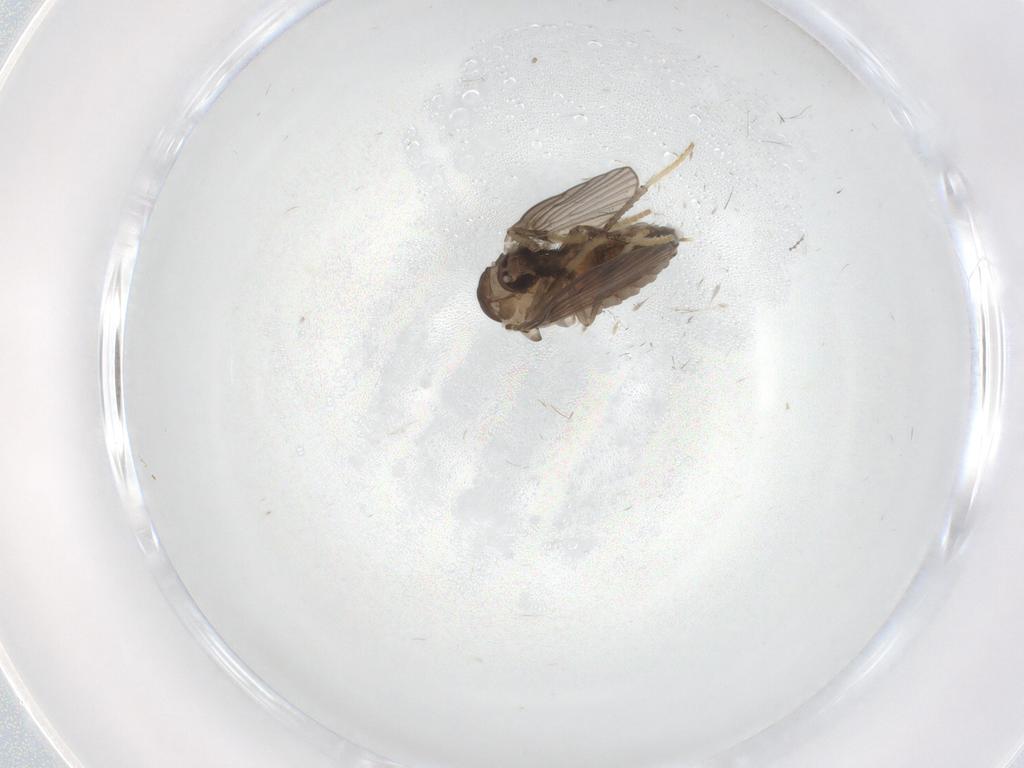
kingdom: Animalia
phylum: Arthropoda
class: Insecta
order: Diptera
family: Psychodidae
